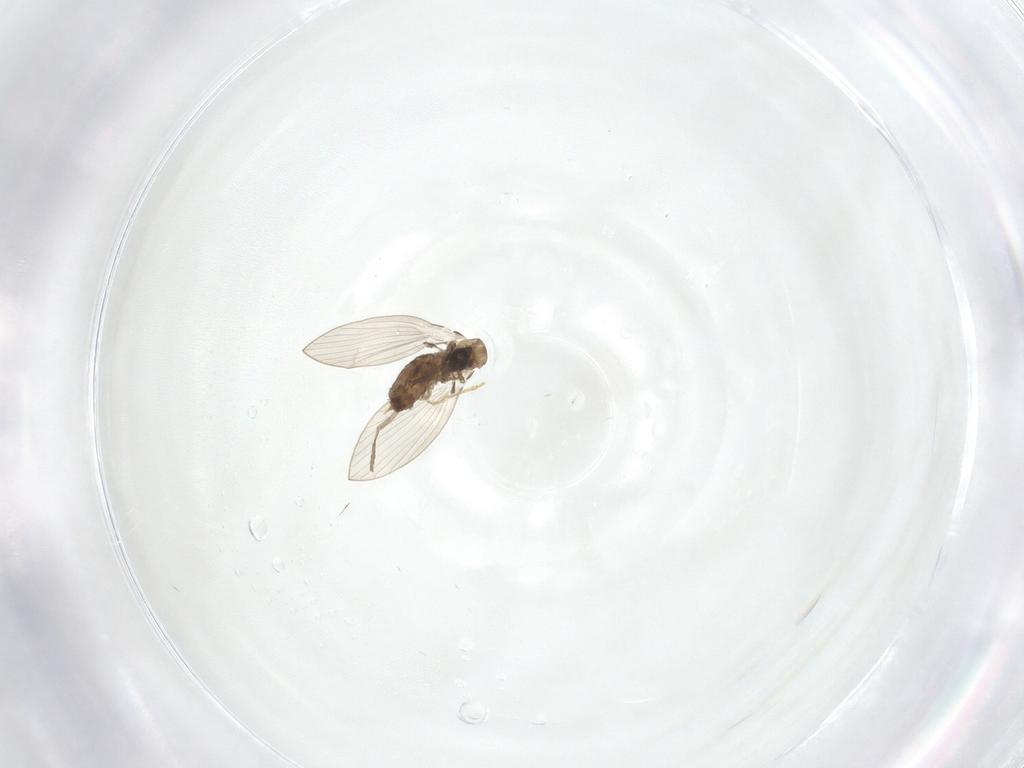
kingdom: Animalia
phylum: Arthropoda
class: Insecta
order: Diptera
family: Psychodidae
